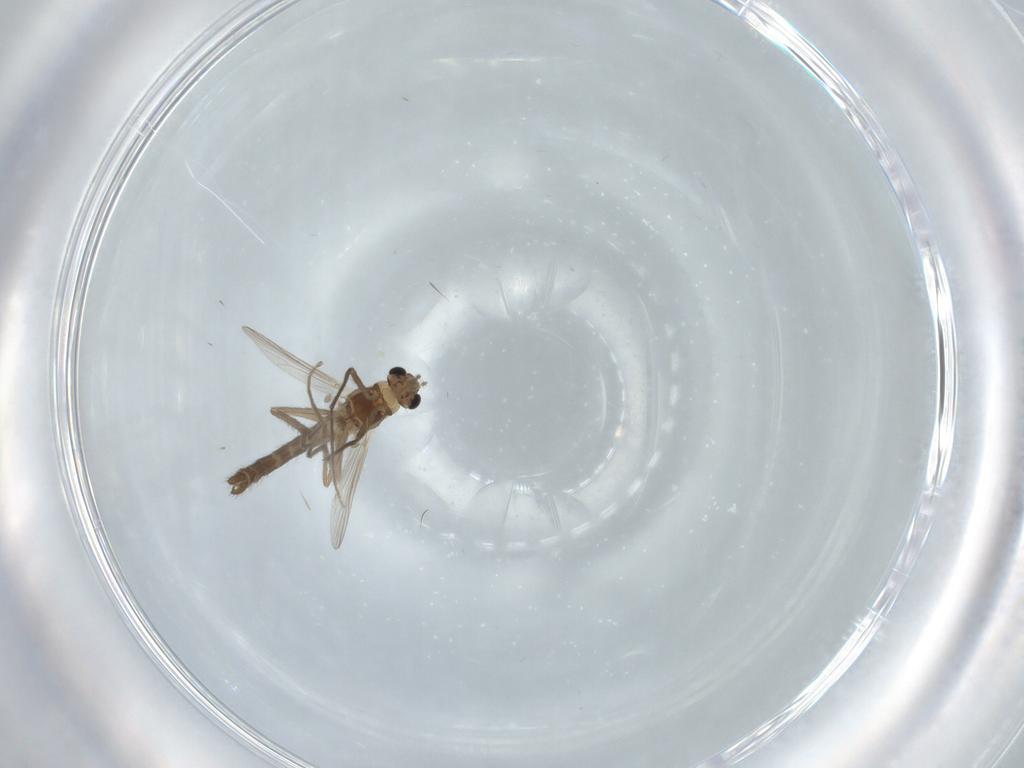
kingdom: Animalia
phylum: Arthropoda
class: Insecta
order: Diptera
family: Chironomidae
